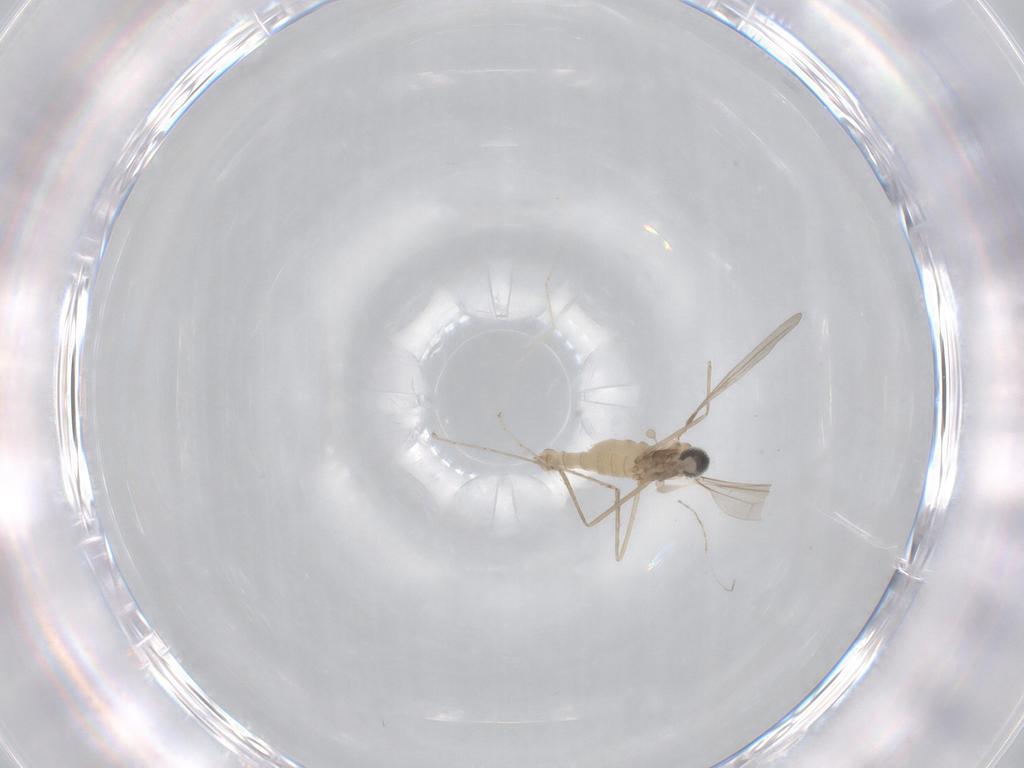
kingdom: Animalia
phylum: Arthropoda
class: Insecta
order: Diptera
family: Cecidomyiidae
